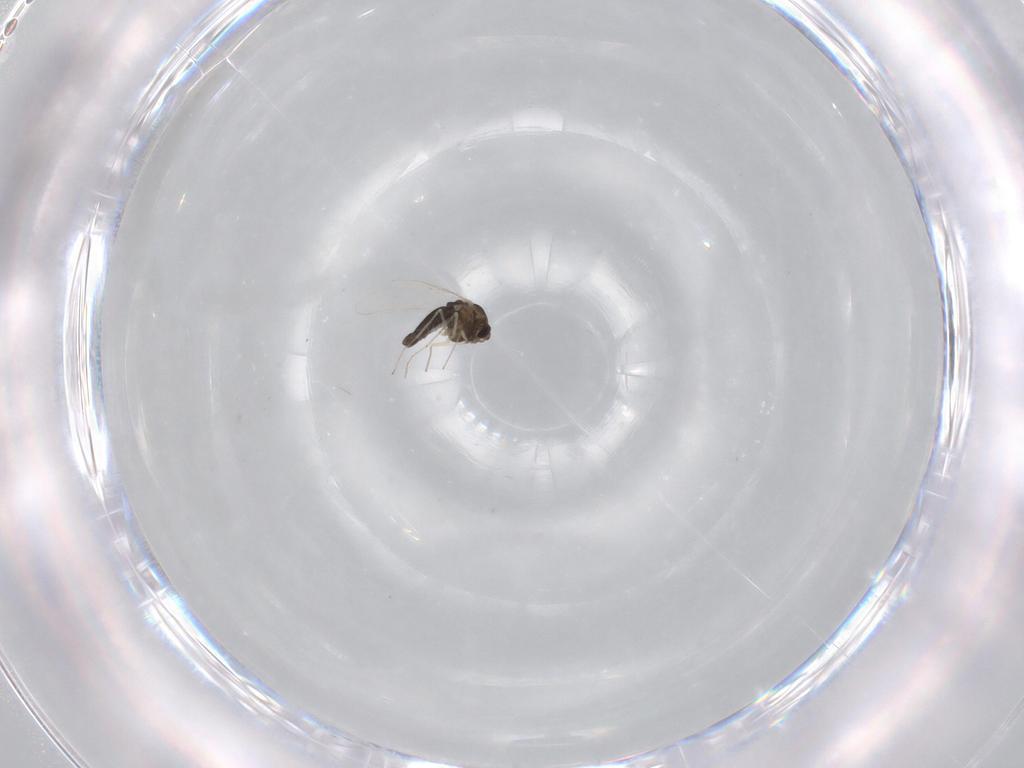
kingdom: Animalia
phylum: Arthropoda
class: Insecta
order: Diptera
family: Chironomidae
